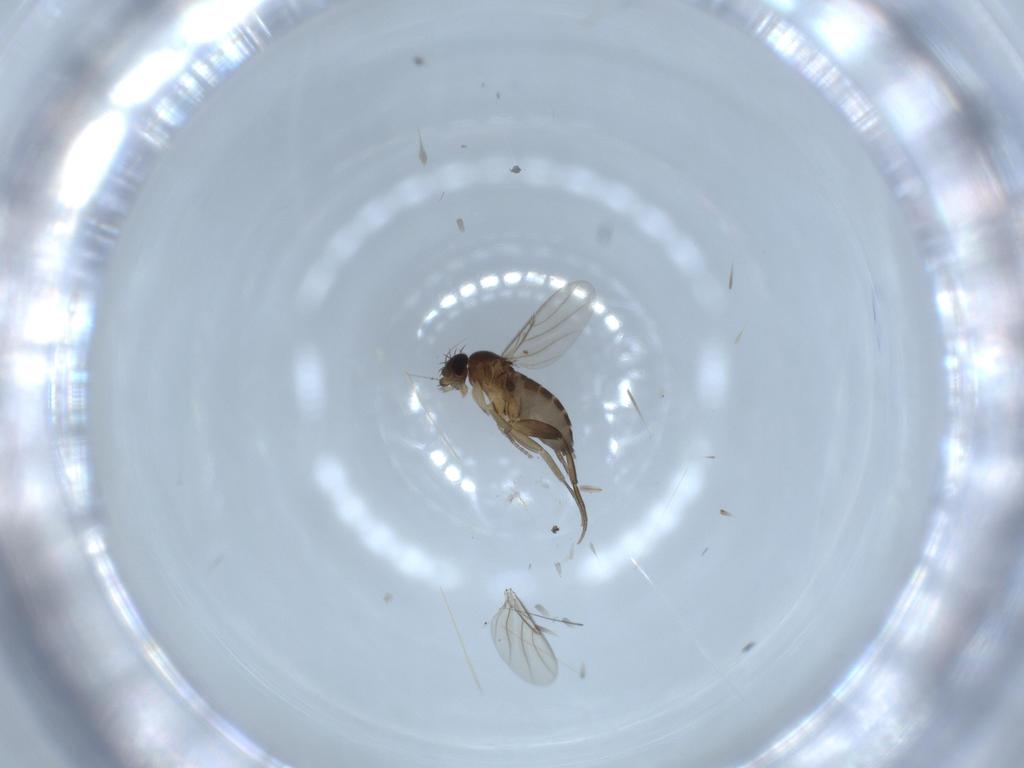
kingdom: Animalia
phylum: Arthropoda
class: Insecta
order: Diptera
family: Phoridae
